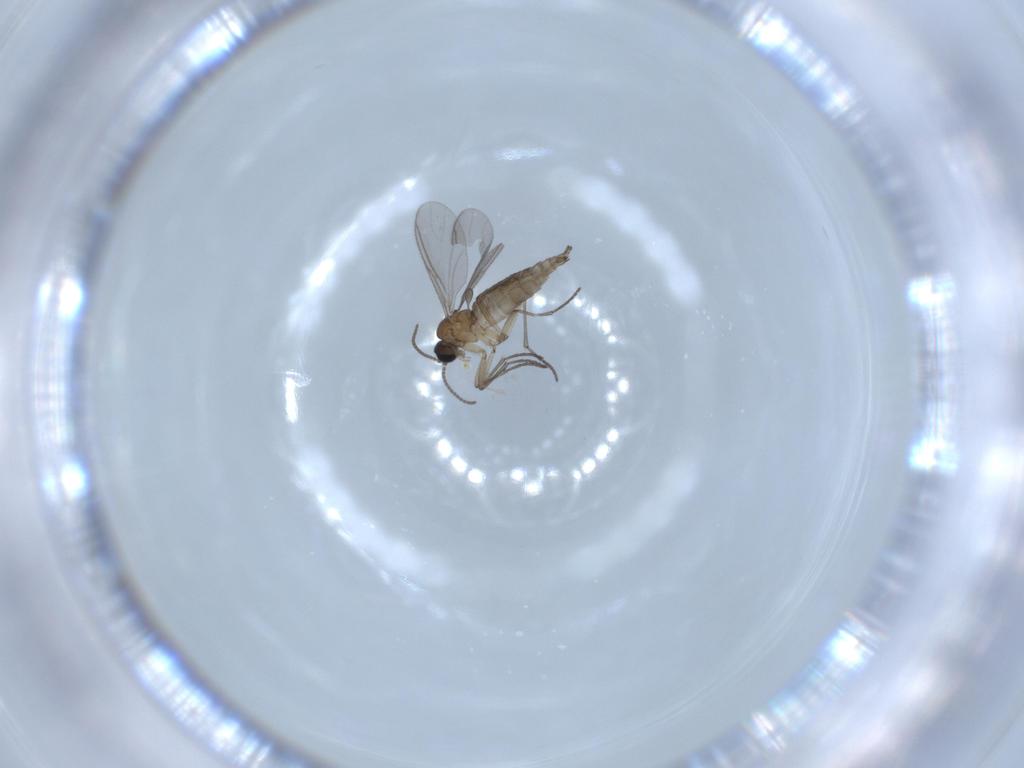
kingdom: Animalia
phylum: Arthropoda
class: Insecta
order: Diptera
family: Sciaridae
